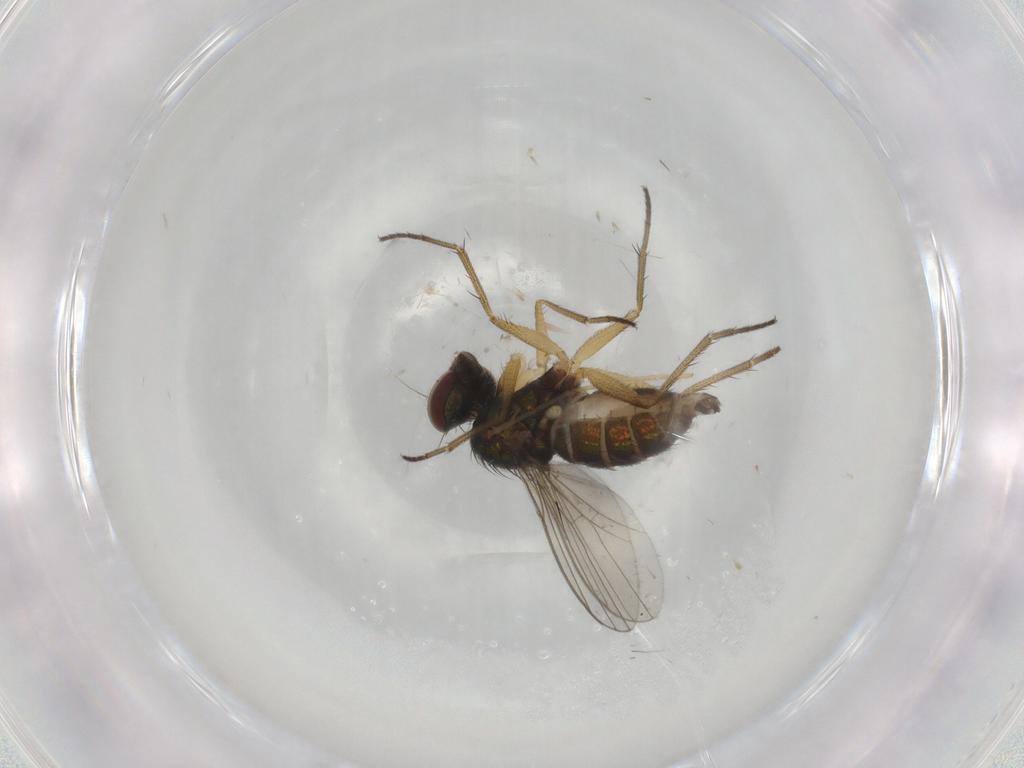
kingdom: Animalia
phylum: Arthropoda
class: Insecta
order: Diptera
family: Dolichopodidae
